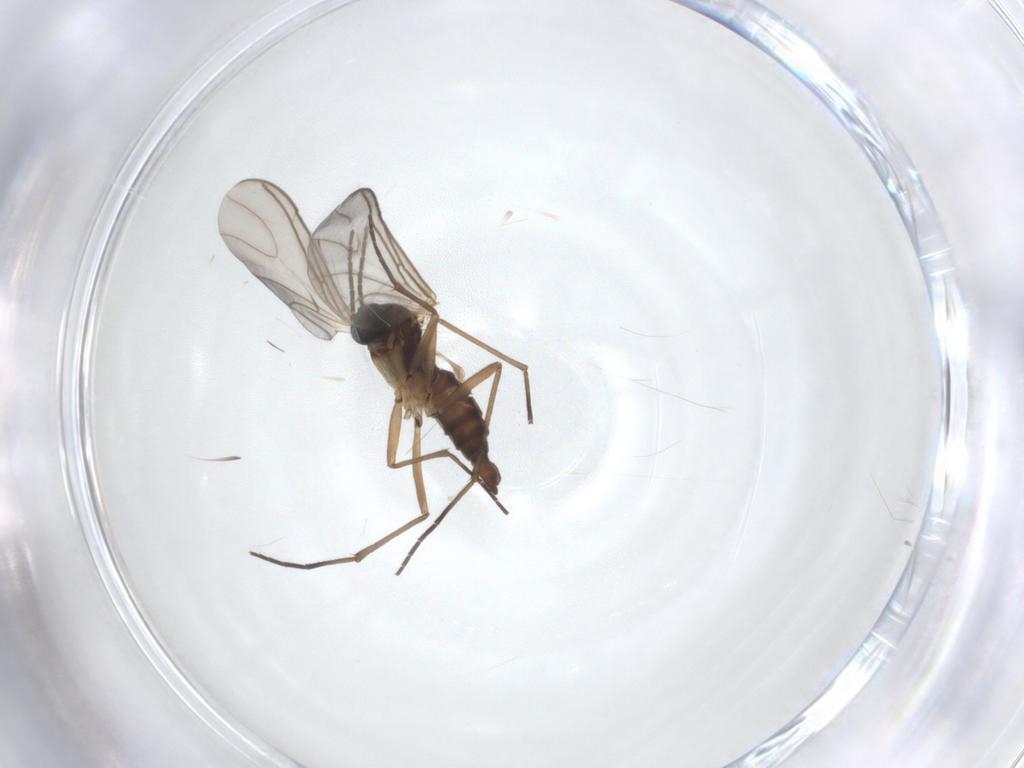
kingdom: Animalia
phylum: Arthropoda
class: Insecta
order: Diptera
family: Sciaridae
